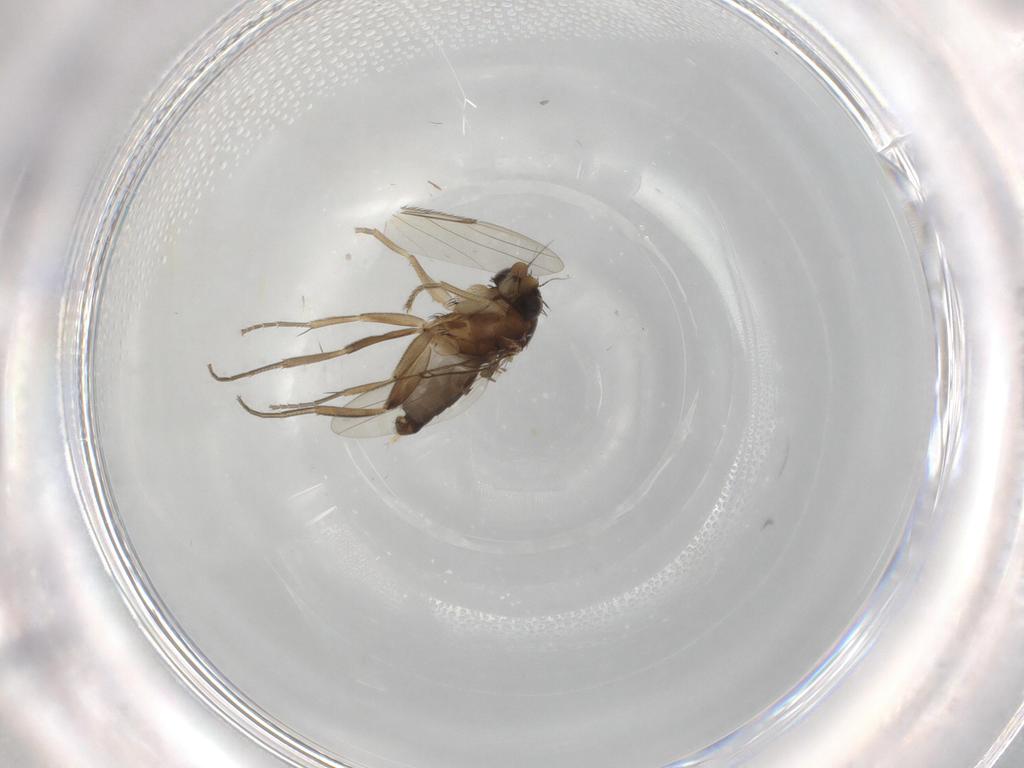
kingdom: Animalia
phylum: Arthropoda
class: Insecta
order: Diptera
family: Phoridae
